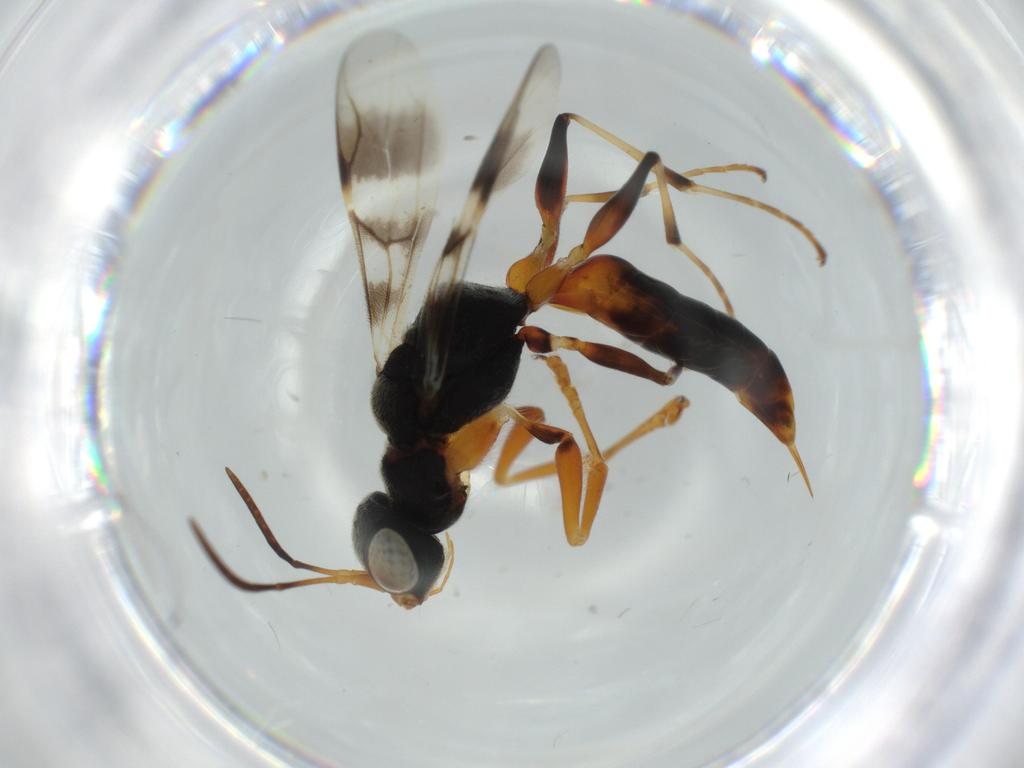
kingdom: Animalia
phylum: Arthropoda
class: Insecta
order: Hymenoptera
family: Dryinidae
